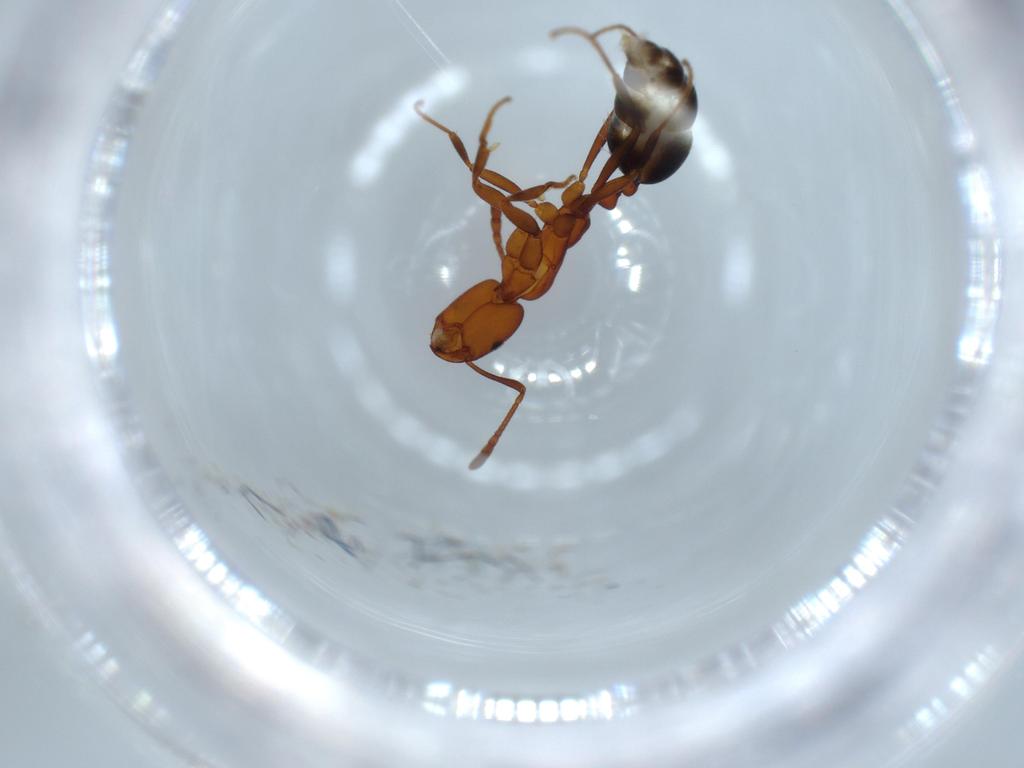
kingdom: Animalia
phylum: Arthropoda
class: Insecta
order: Hymenoptera
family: Formicidae
